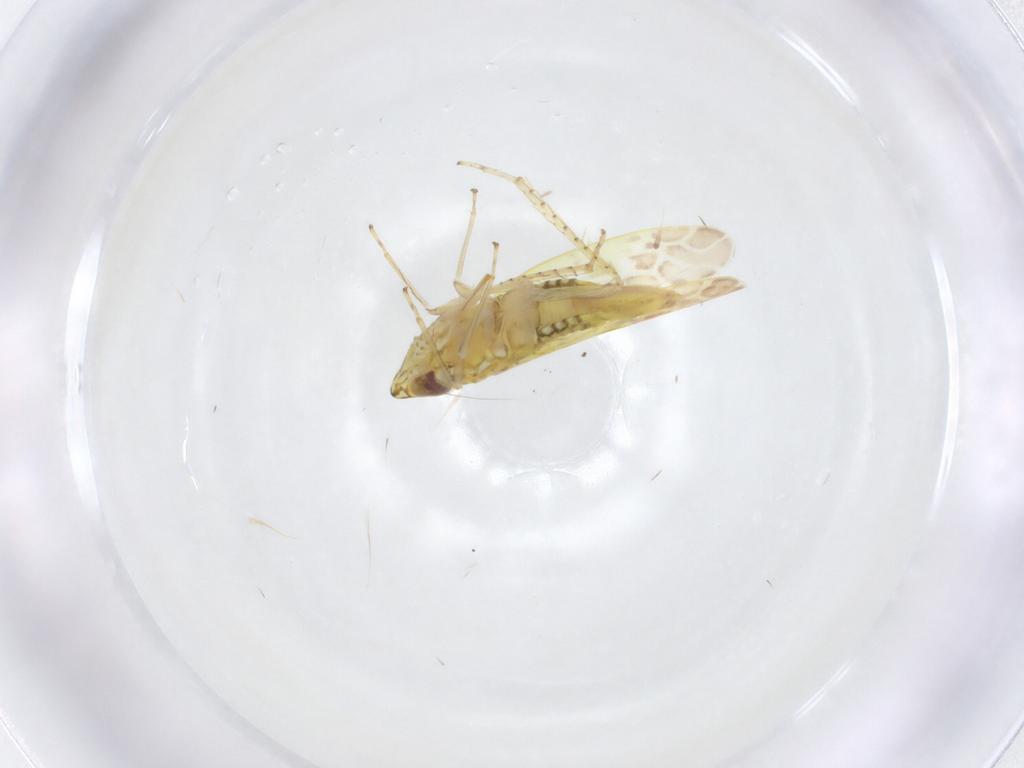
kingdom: Animalia
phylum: Arthropoda
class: Insecta
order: Hemiptera
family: Cicadellidae
